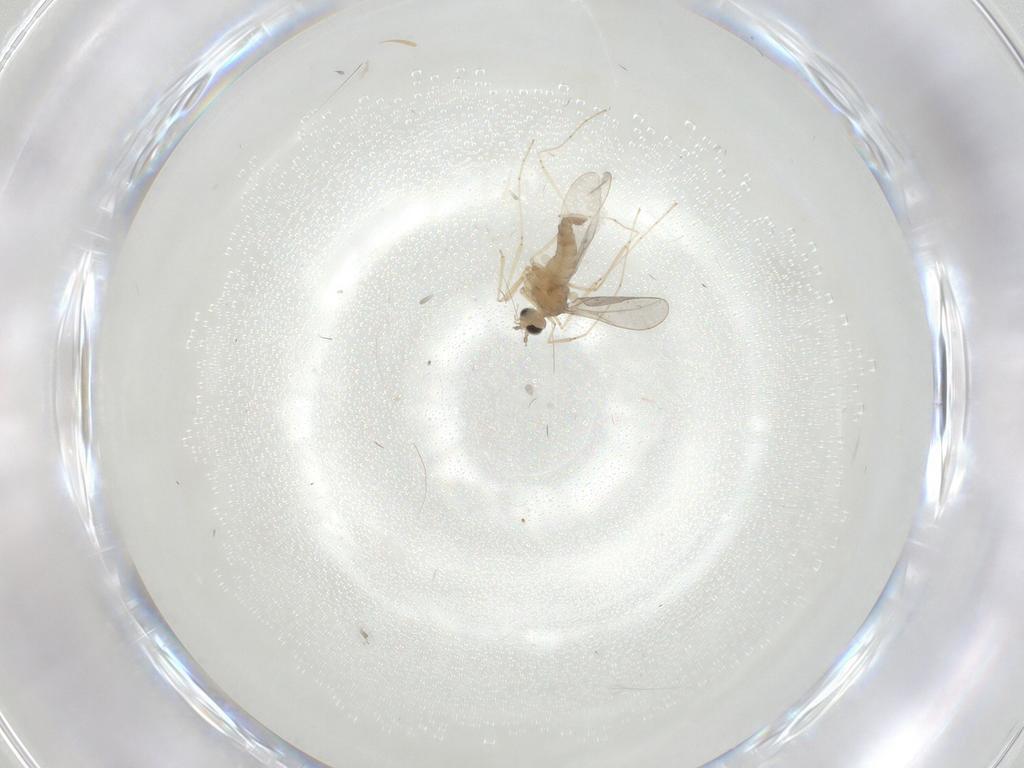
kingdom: Animalia
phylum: Arthropoda
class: Insecta
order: Diptera
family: Cecidomyiidae
